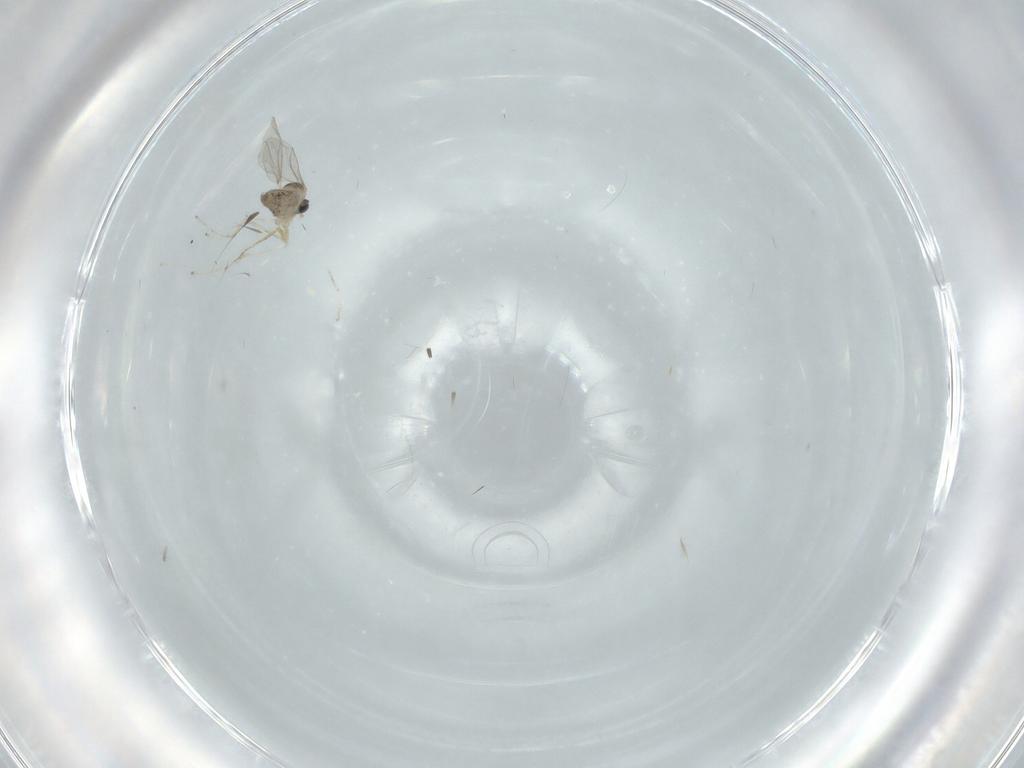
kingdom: Animalia
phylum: Arthropoda
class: Insecta
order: Diptera
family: Cecidomyiidae
